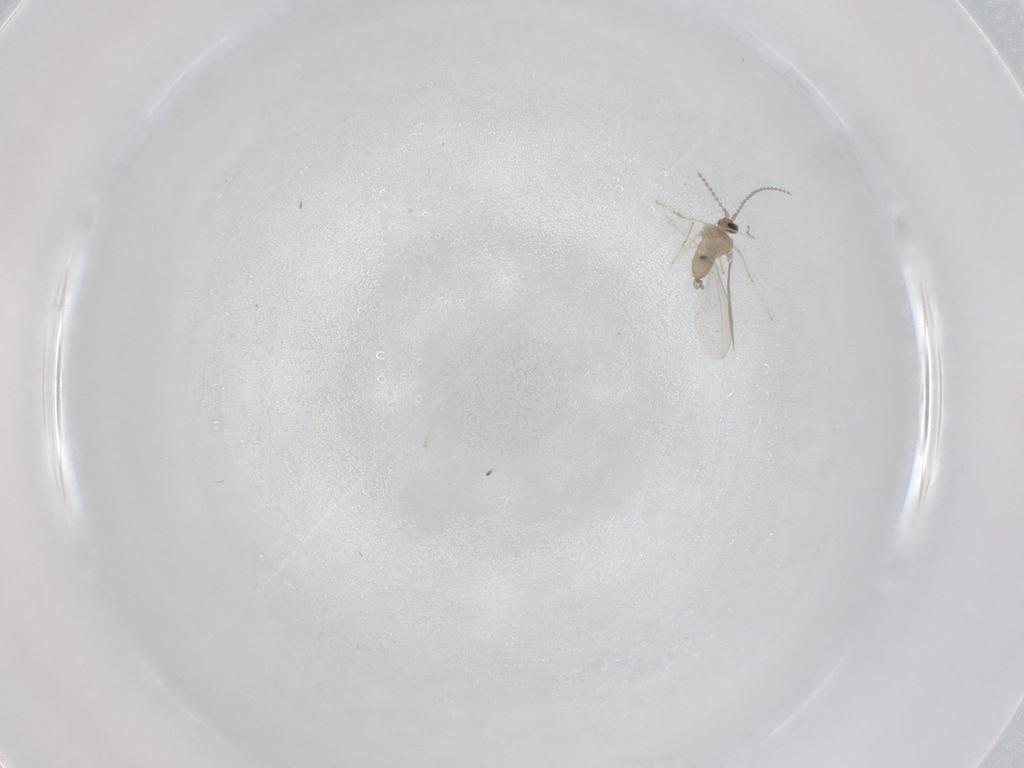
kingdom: Animalia
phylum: Arthropoda
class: Insecta
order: Diptera
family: Cecidomyiidae
